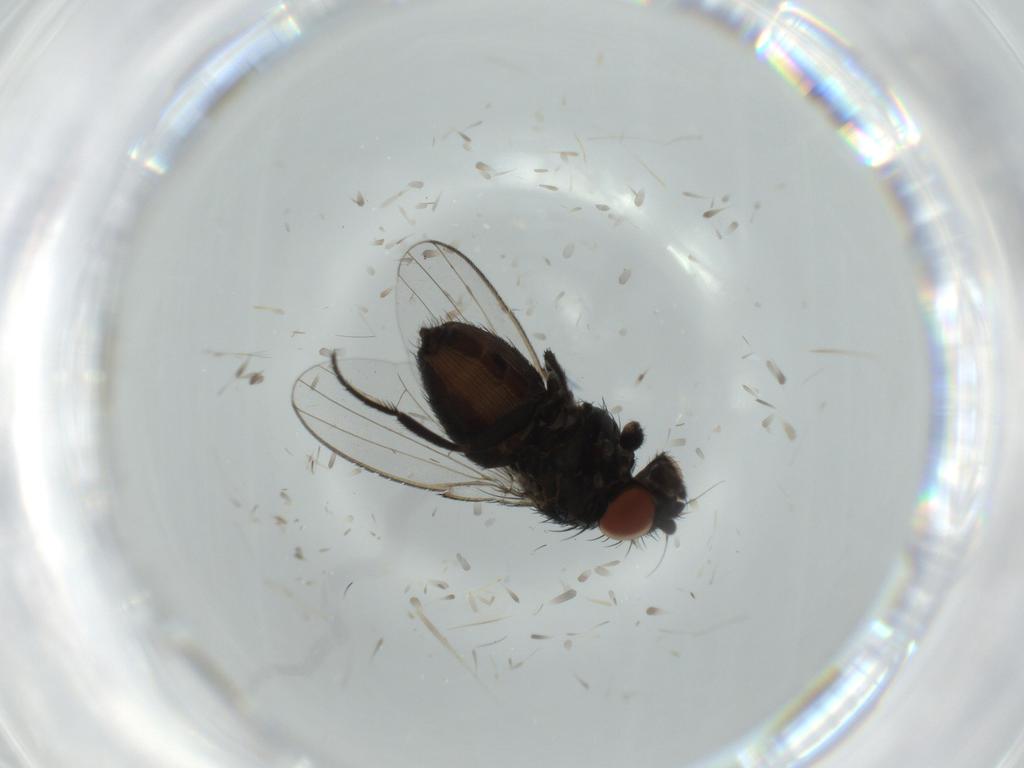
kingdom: Animalia
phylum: Arthropoda
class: Insecta
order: Diptera
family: Milichiidae
